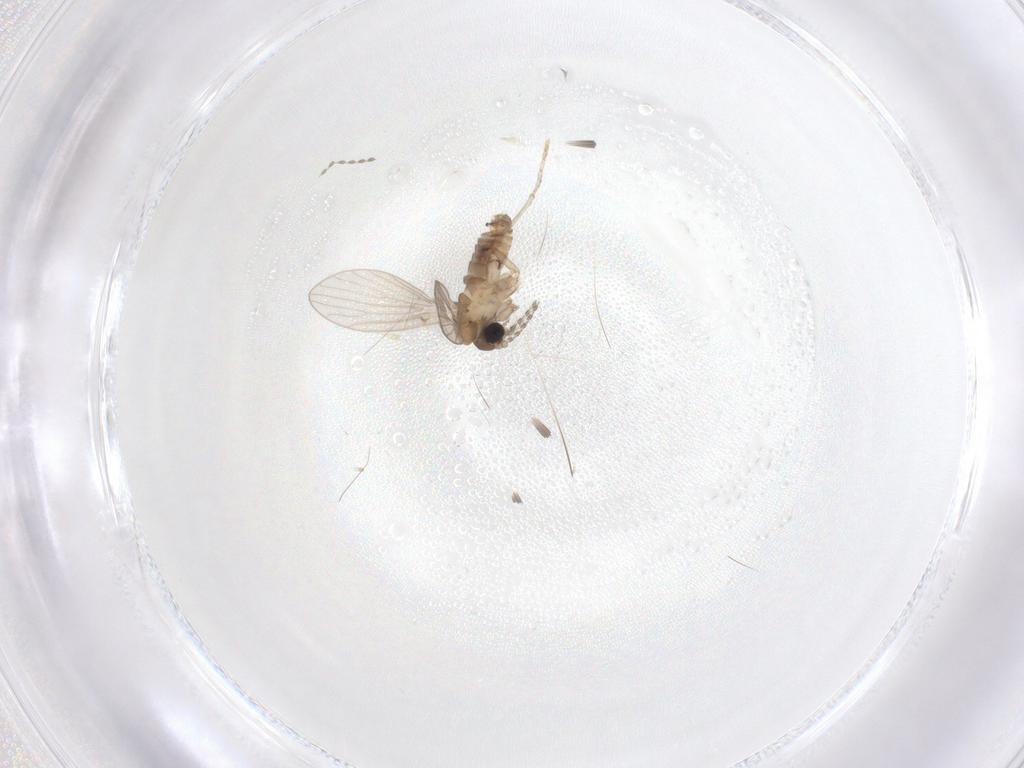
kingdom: Animalia
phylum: Arthropoda
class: Insecta
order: Diptera
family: Psychodidae
